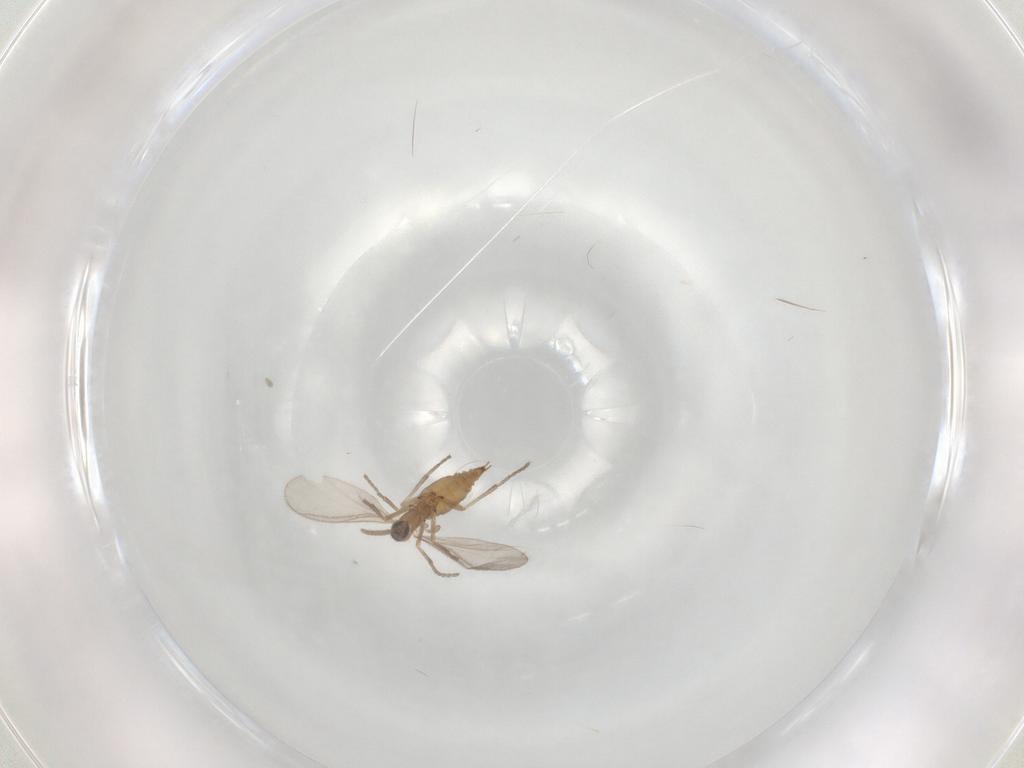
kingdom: Animalia
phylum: Arthropoda
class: Insecta
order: Diptera
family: Sciaridae
